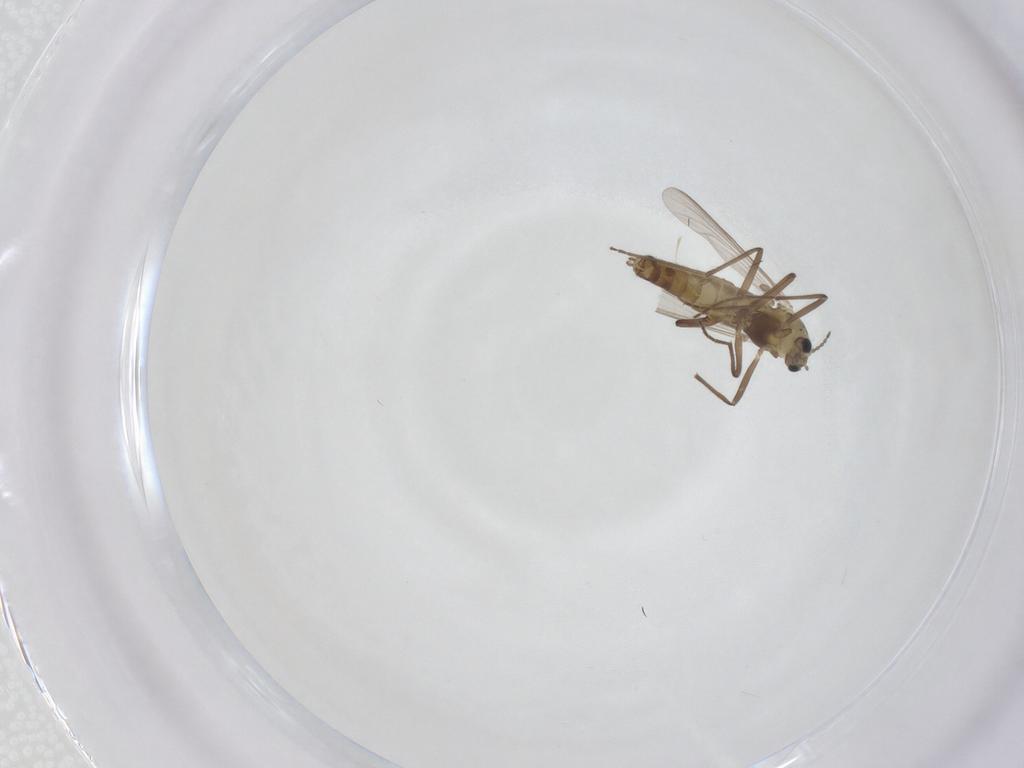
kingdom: Animalia
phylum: Arthropoda
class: Insecta
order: Diptera
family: Chironomidae
